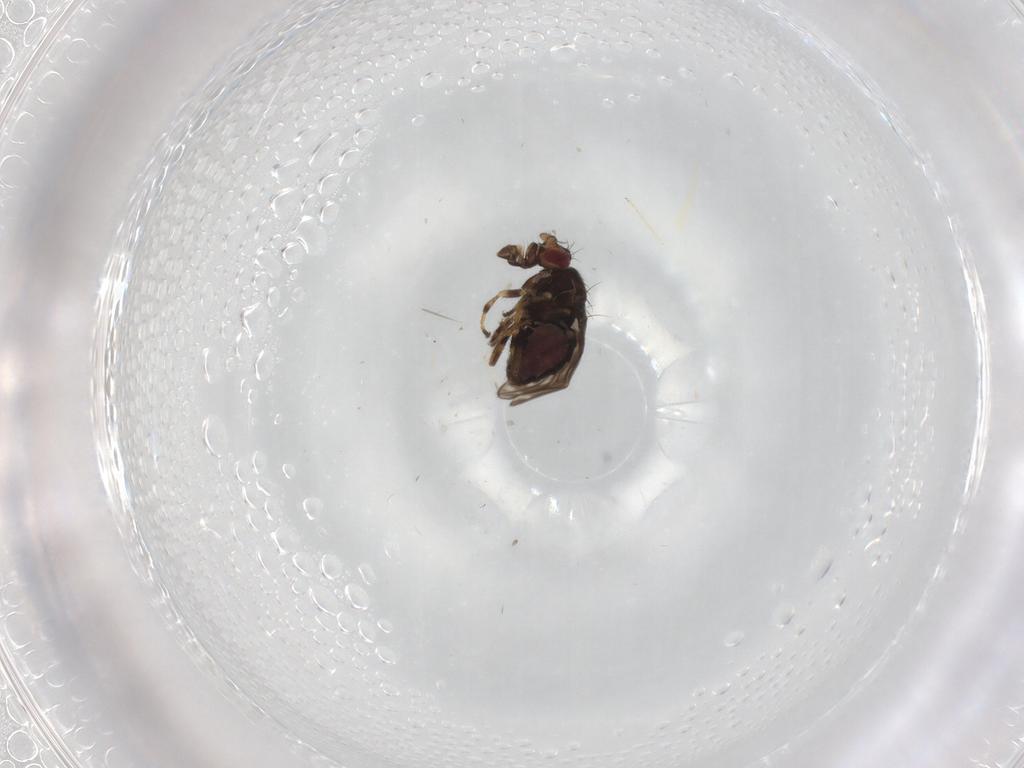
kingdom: Animalia
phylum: Arthropoda
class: Insecta
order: Diptera
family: Sphaeroceridae
